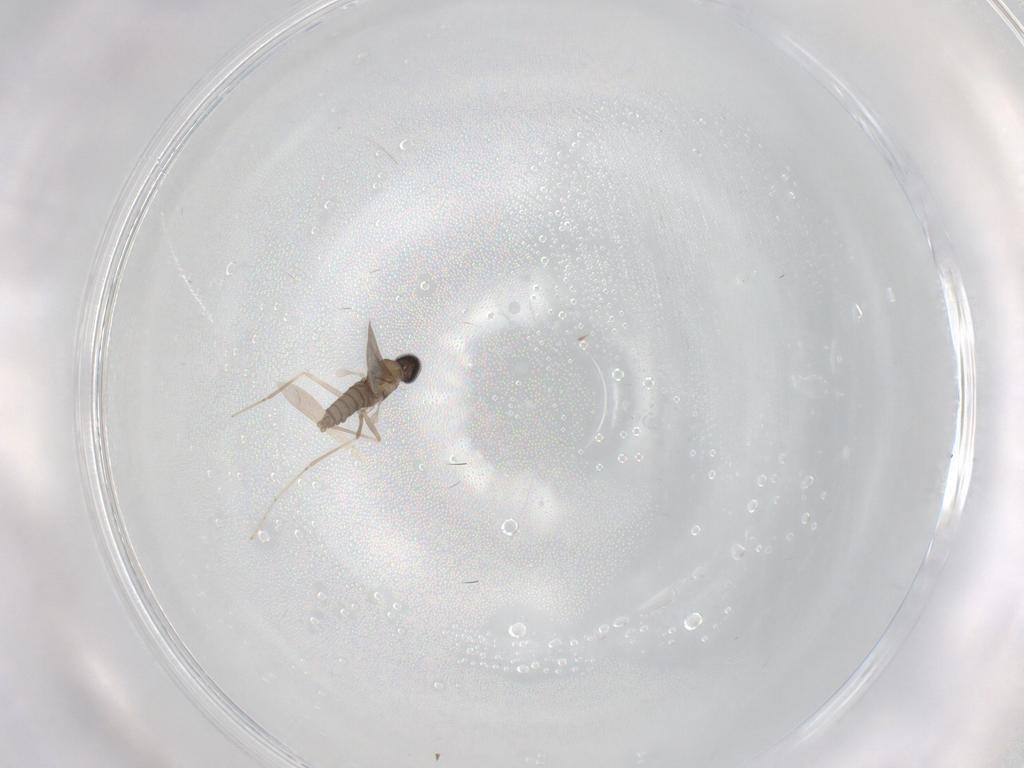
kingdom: Animalia
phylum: Arthropoda
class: Insecta
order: Diptera
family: Cecidomyiidae
